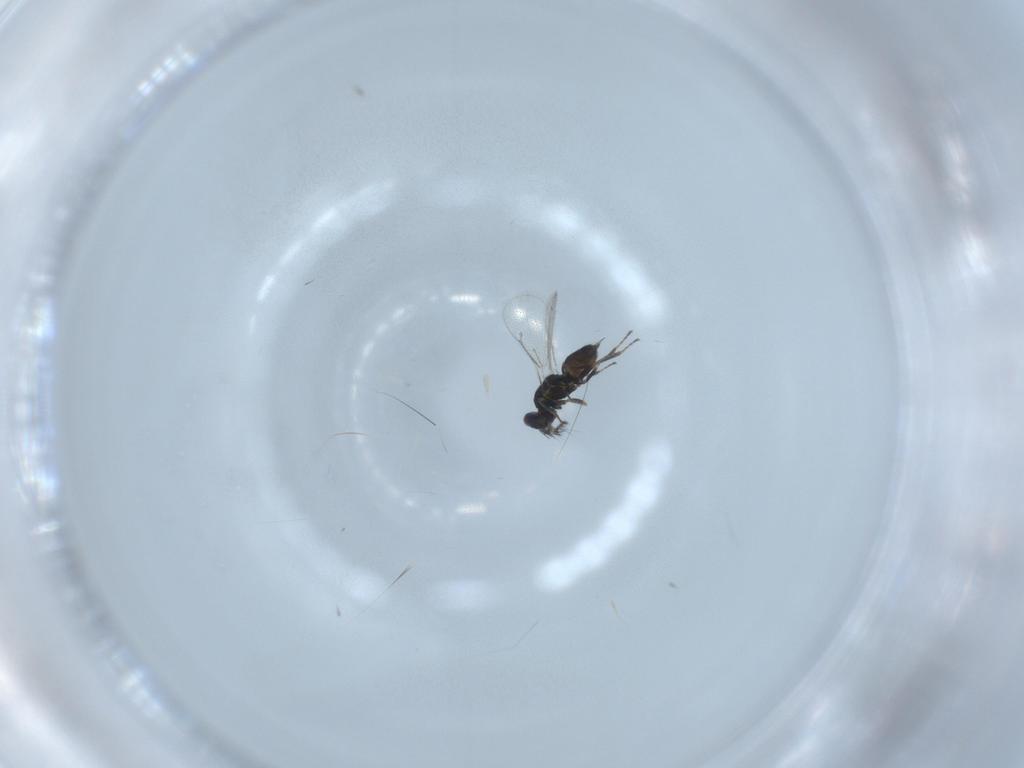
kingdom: Animalia
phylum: Arthropoda
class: Insecta
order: Hymenoptera
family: Eulophidae
